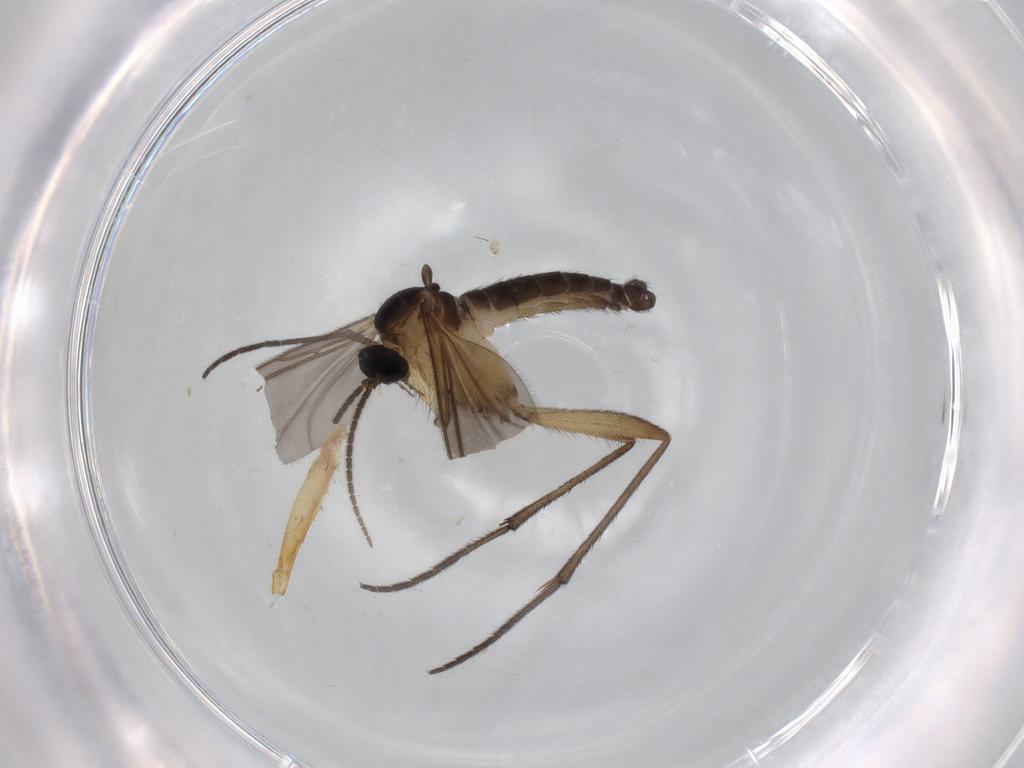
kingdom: Animalia
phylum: Arthropoda
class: Insecta
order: Diptera
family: Sciaridae
